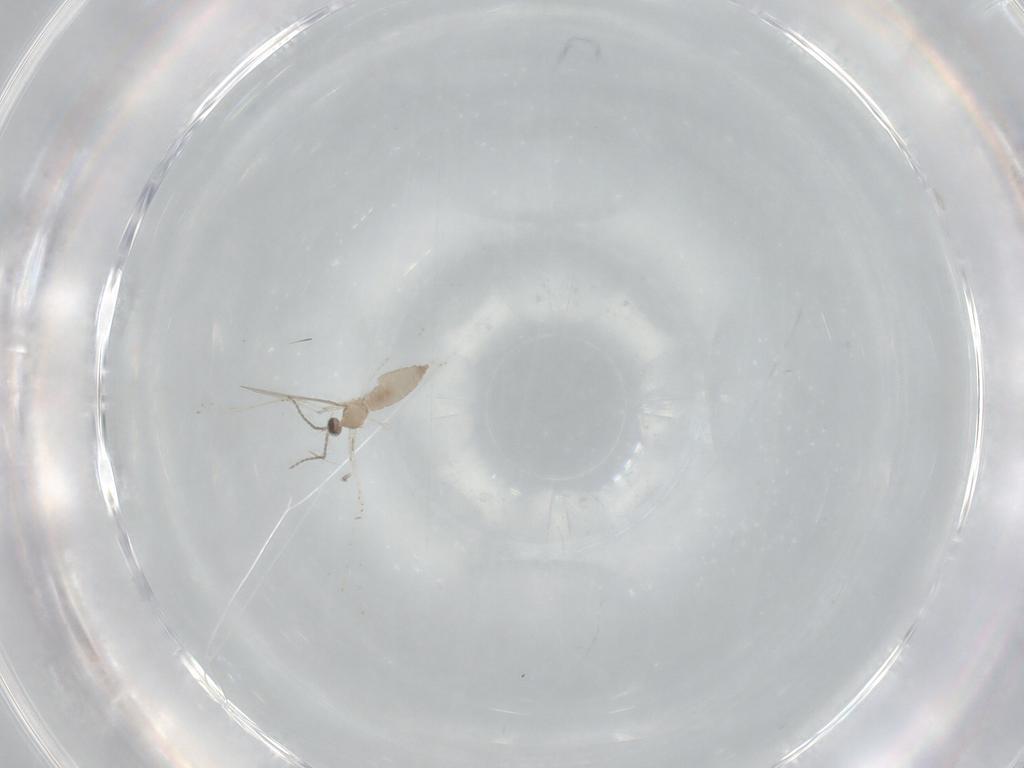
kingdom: Animalia
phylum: Arthropoda
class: Insecta
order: Diptera
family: Cecidomyiidae
